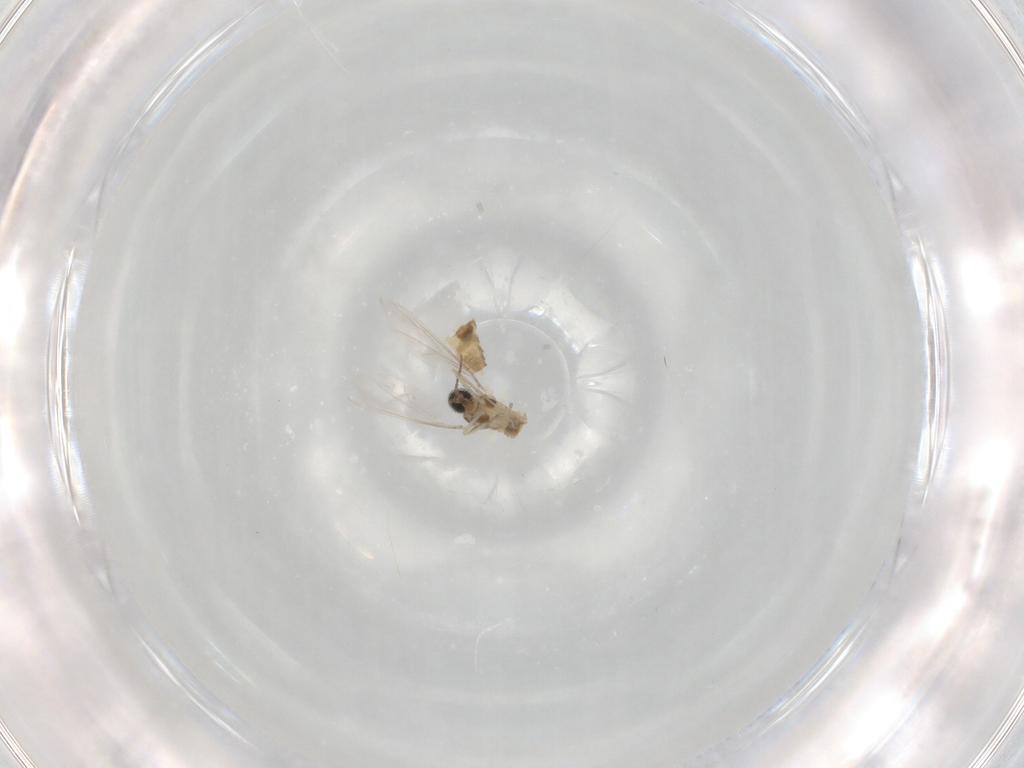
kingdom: Animalia
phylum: Arthropoda
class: Insecta
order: Diptera
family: Cecidomyiidae
